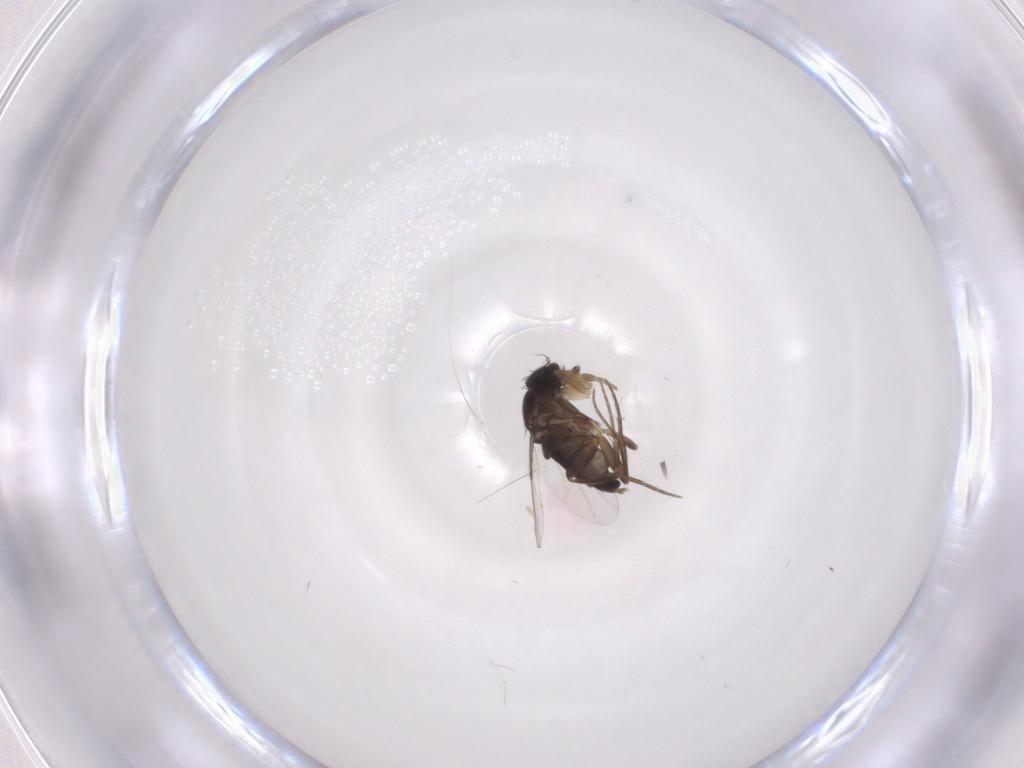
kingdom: Animalia
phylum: Arthropoda
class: Insecta
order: Diptera
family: Phoridae
